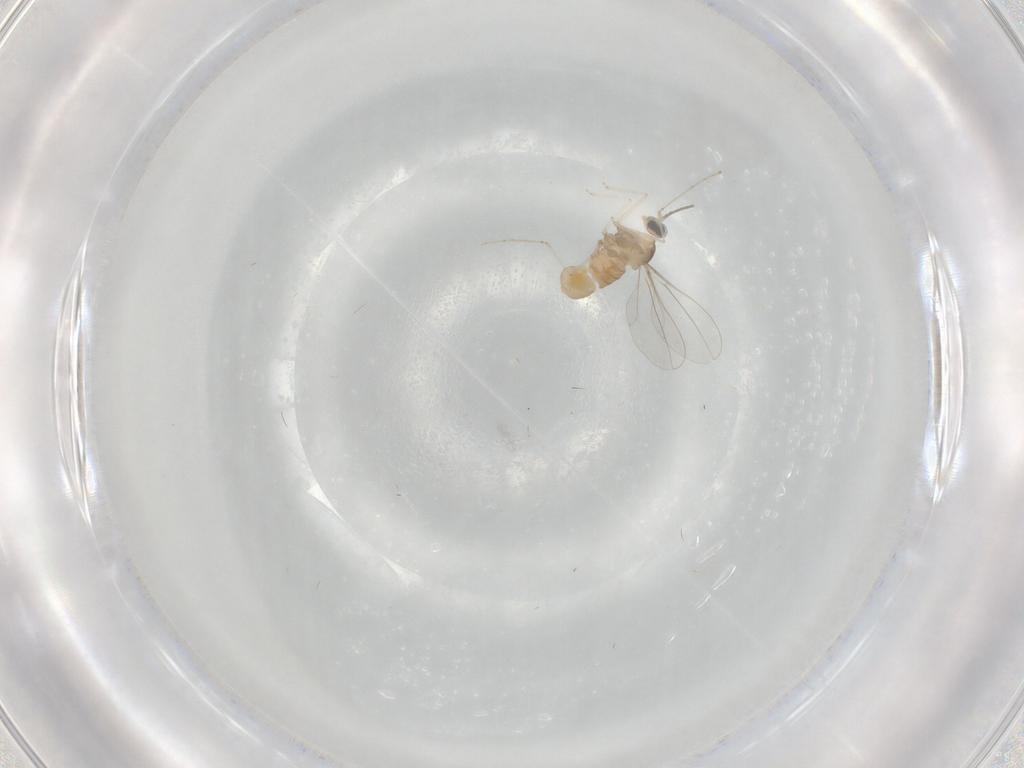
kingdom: Animalia
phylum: Arthropoda
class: Insecta
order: Diptera
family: Cecidomyiidae
